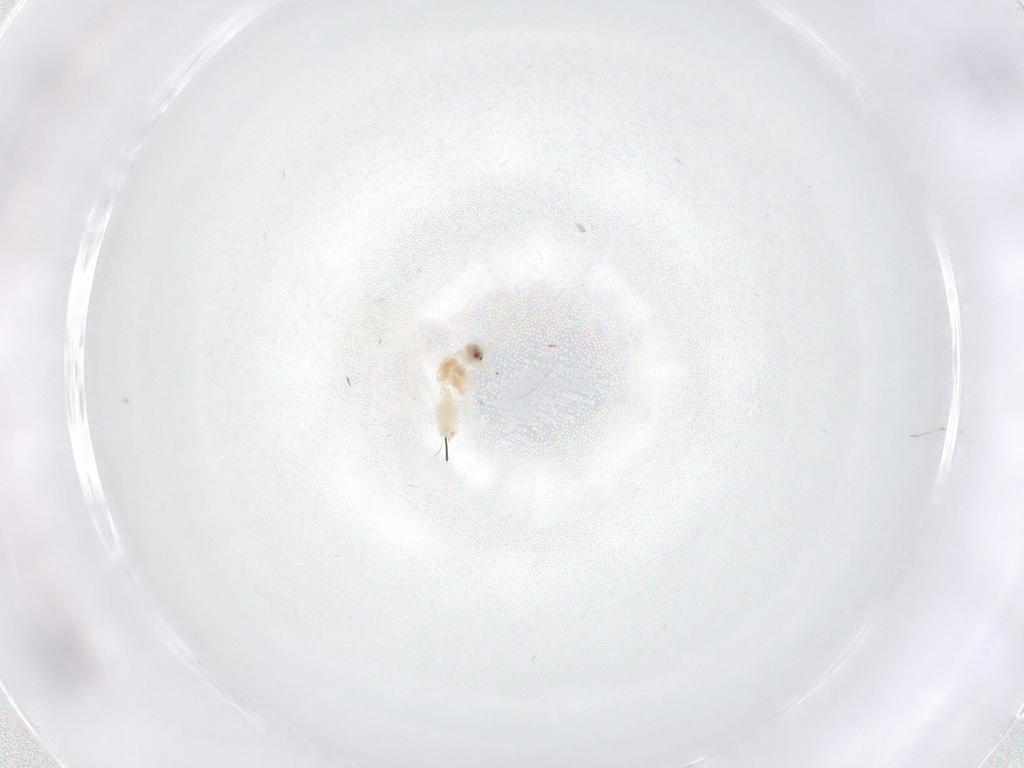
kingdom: Animalia
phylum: Arthropoda
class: Insecta
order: Hemiptera
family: Aleyrodidae
